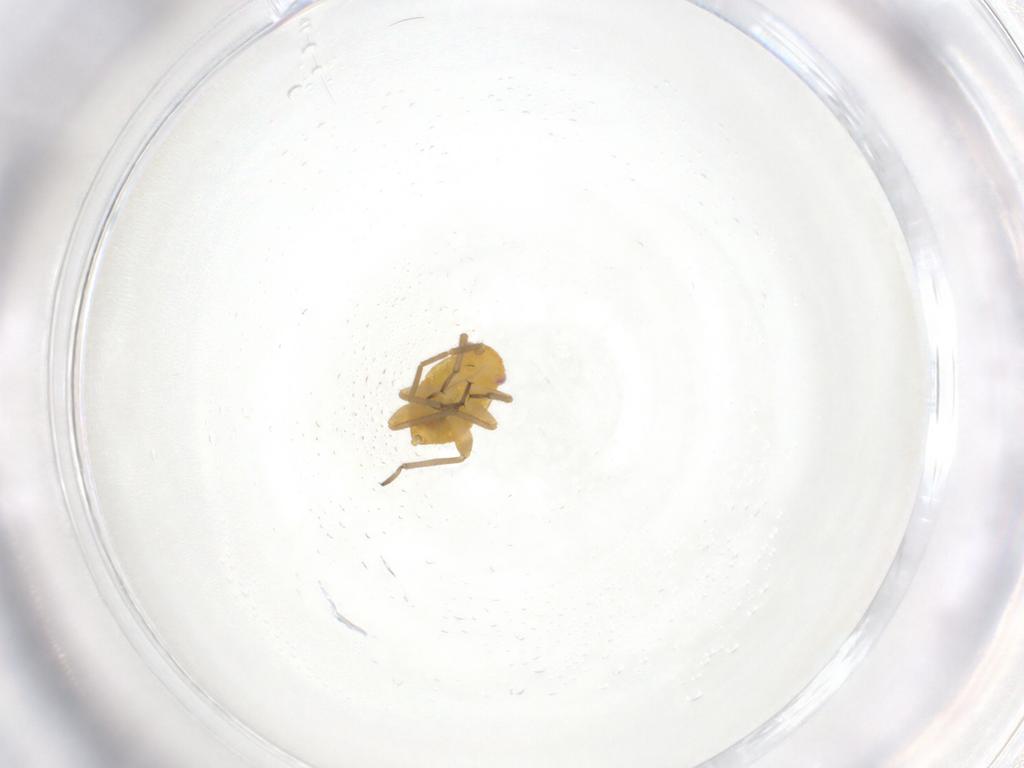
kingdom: Animalia
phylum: Arthropoda
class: Insecta
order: Hemiptera
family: Miridae
